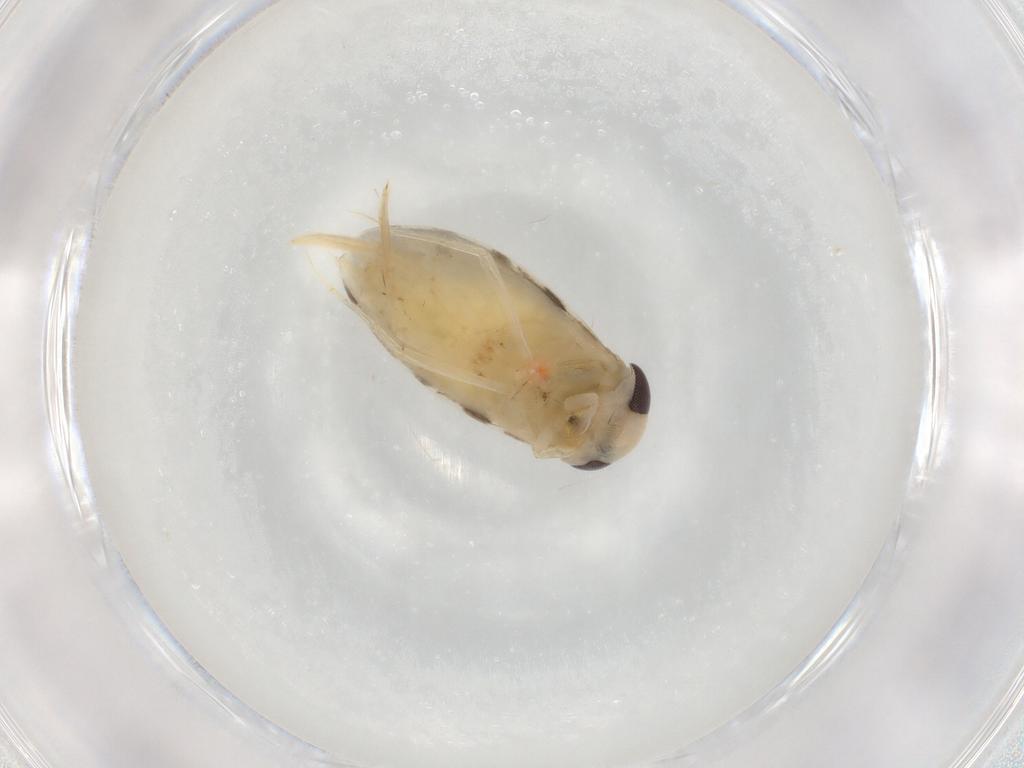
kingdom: Animalia
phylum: Arthropoda
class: Insecta
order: Hemiptera
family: Corixidae
